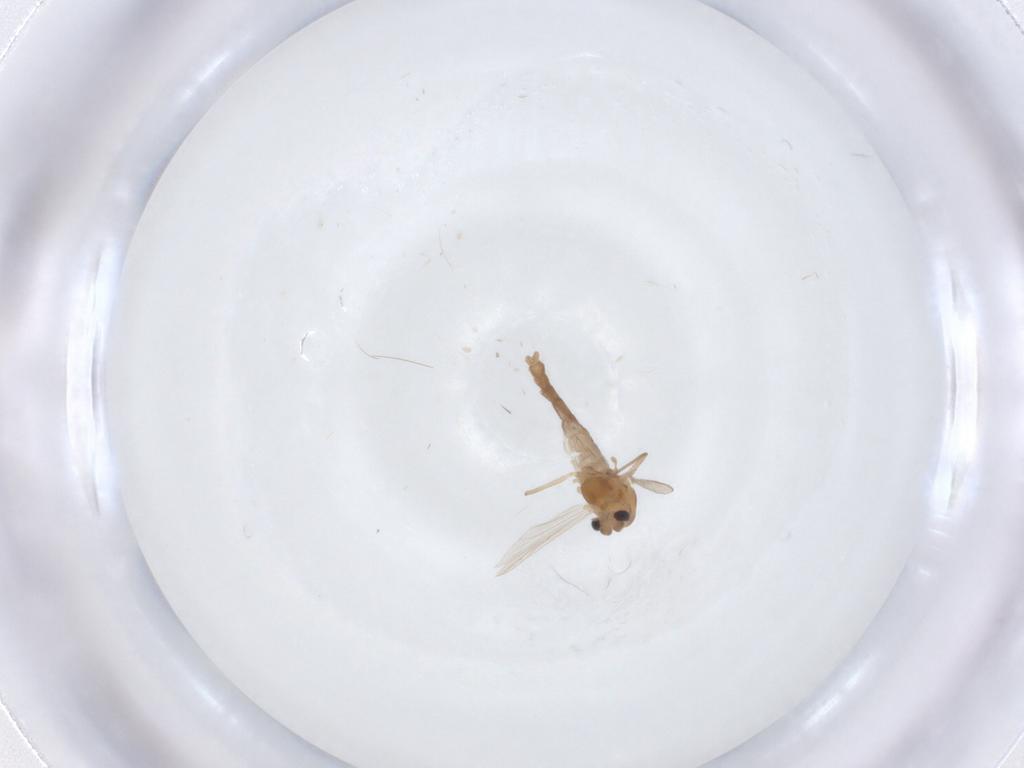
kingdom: Animalia
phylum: Arthropoda
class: Insecta
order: Diptera
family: Chironomidae
